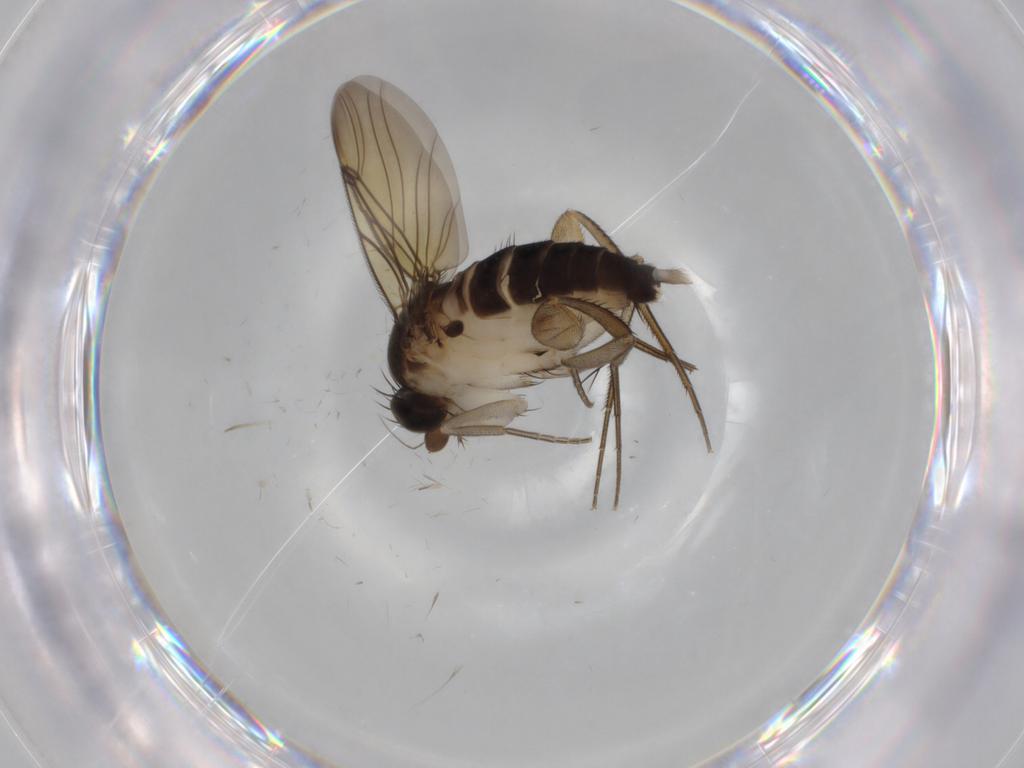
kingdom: Animalia
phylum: Arthropoda
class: Insecta
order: Diptera
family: Phoridae
